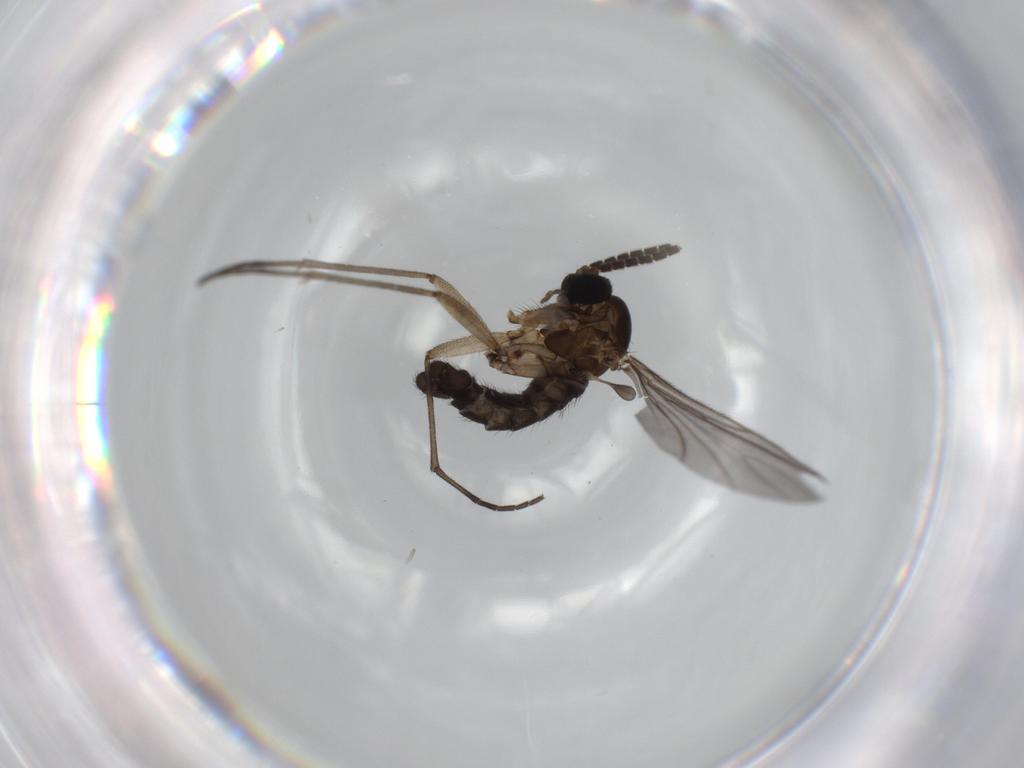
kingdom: Animalia
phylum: Arthropoda
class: Insecta
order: Diptera
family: Sciaridae
